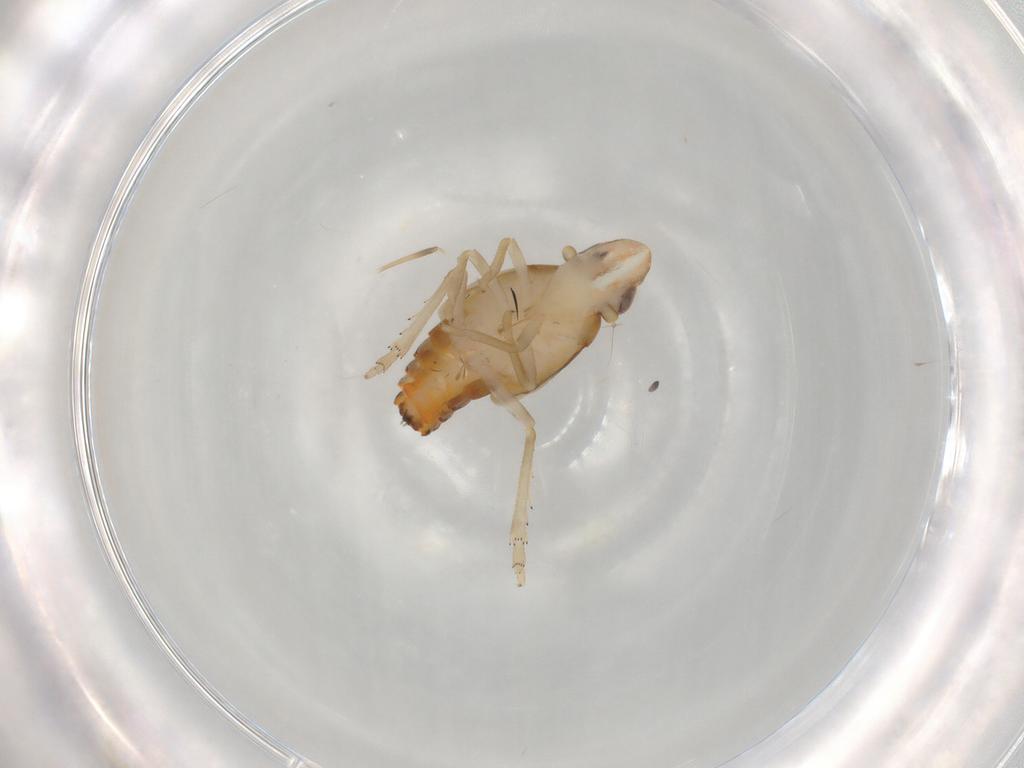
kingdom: Animalia
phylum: Arthropoda
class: Insecta
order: Hemiptera
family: Tropiduchidae
